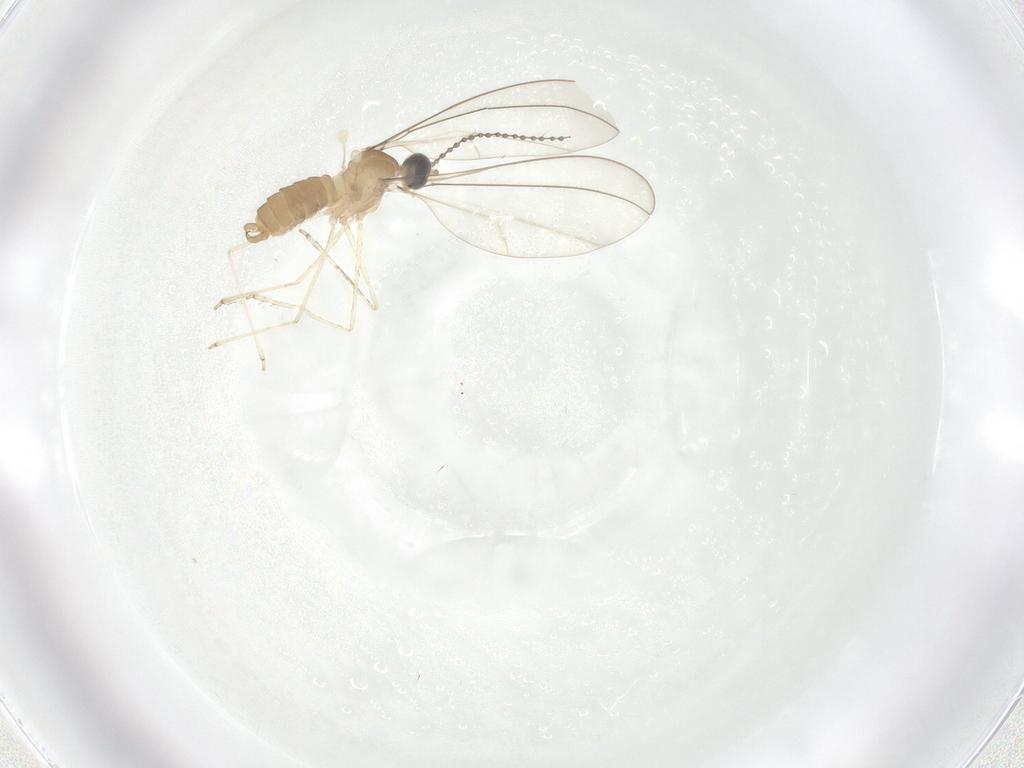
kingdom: Animalia
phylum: Arthropoda
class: Insecta
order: Diptera
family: Cecidomyiidae
